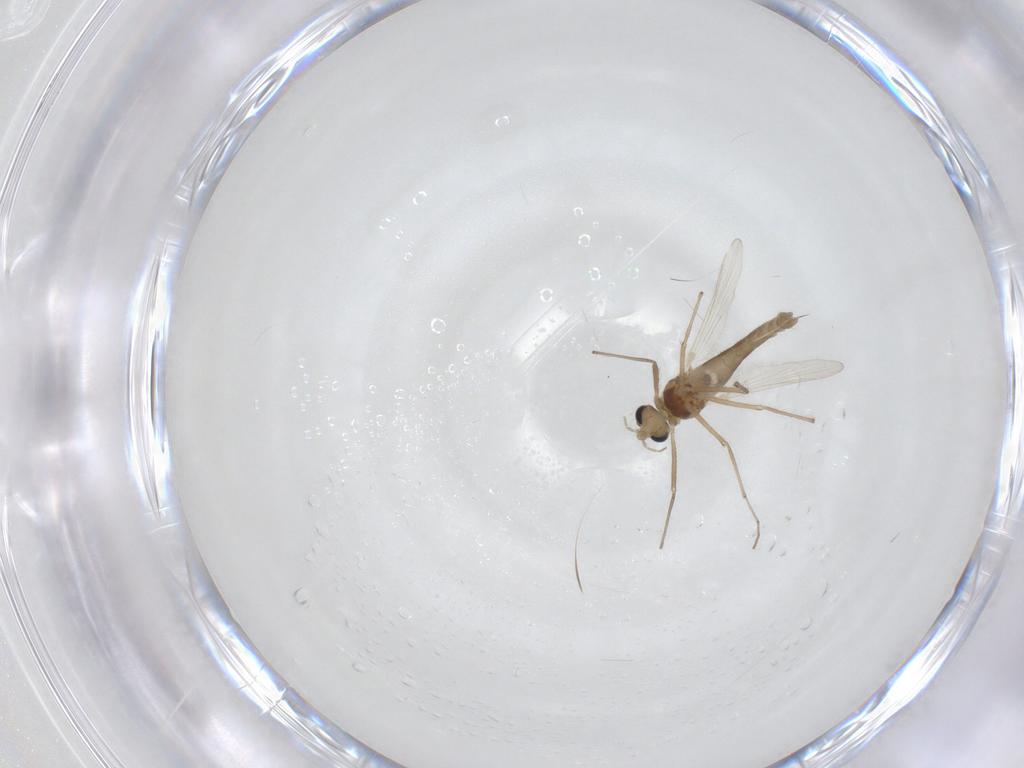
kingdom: Animalia
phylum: Arthropoda
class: Insecta
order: Diptera
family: Chironomidae
